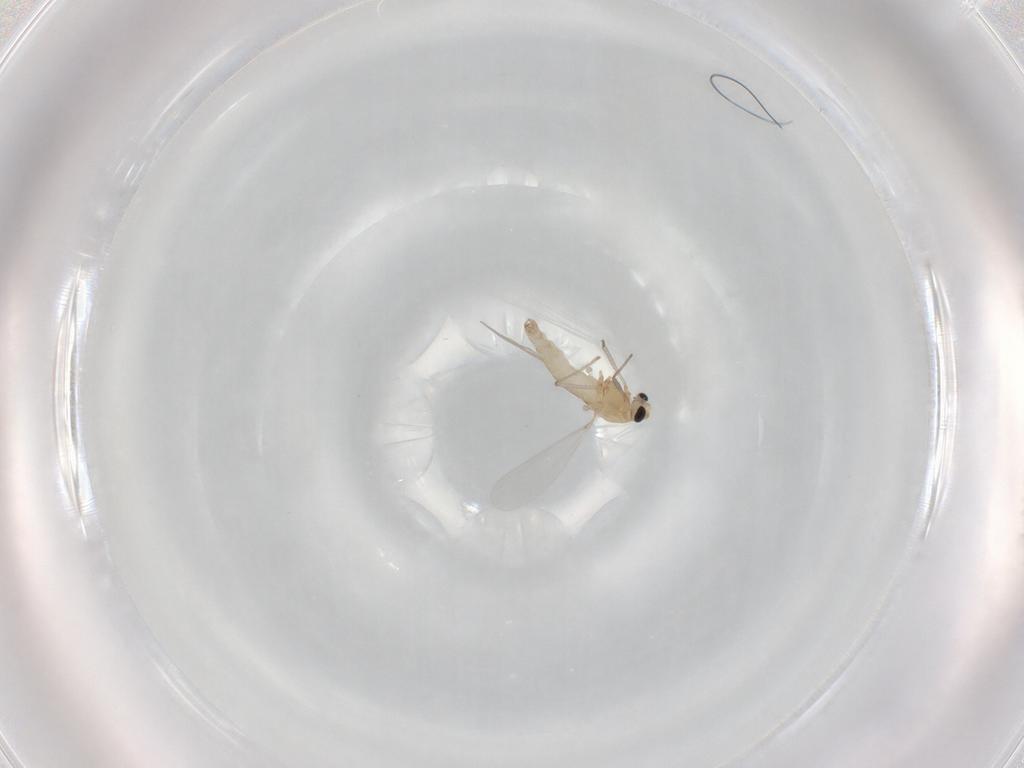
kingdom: Animalia
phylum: Arthropoda
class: Insecta
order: Diptera
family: Chironomidae
